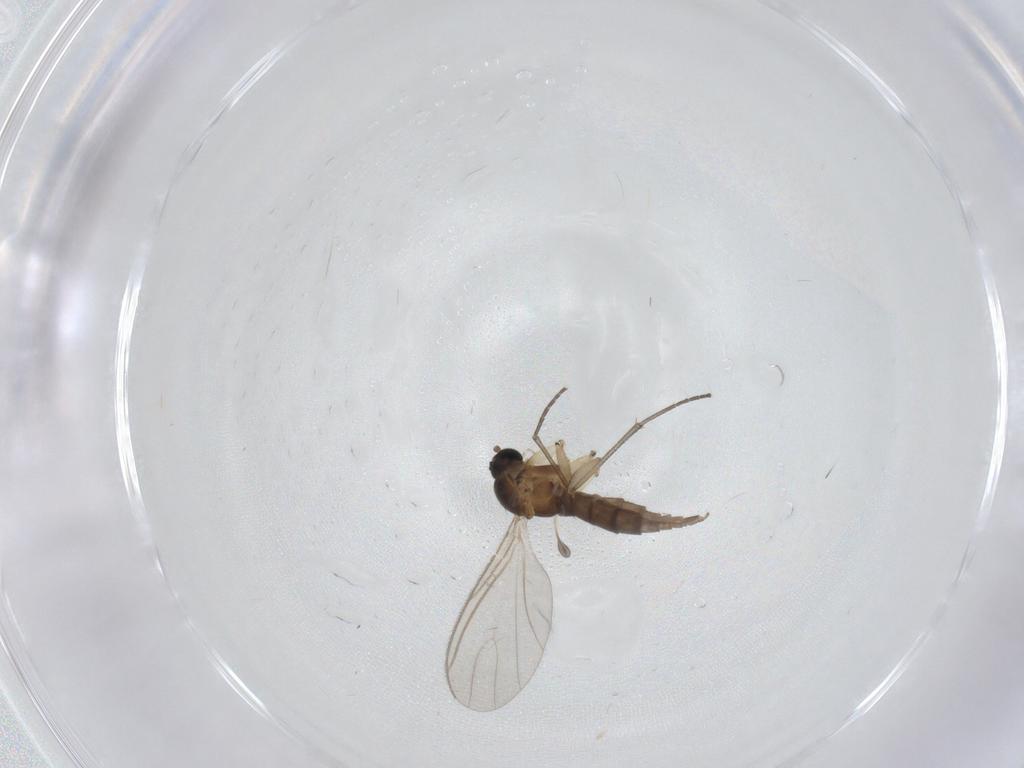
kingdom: Animalia
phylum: Arthropoda
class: Insecta
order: Diptera
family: Sciaridae
